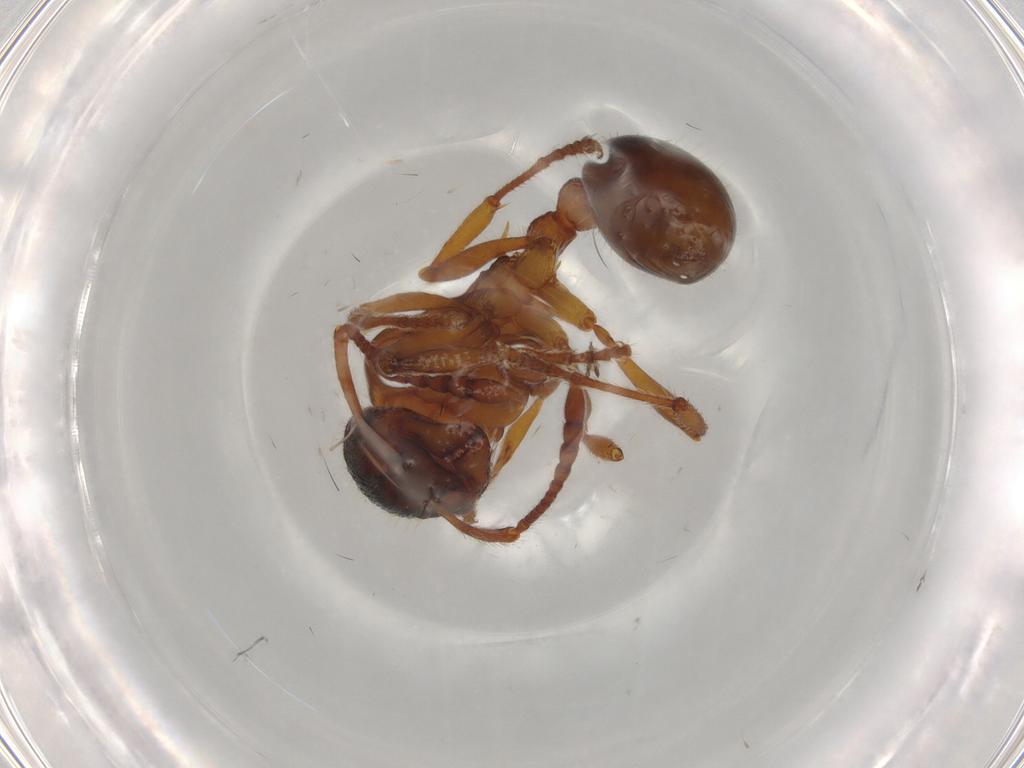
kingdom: Animalia
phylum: Arthropoda
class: Insecta
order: Hymenoptera
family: Formicidae
